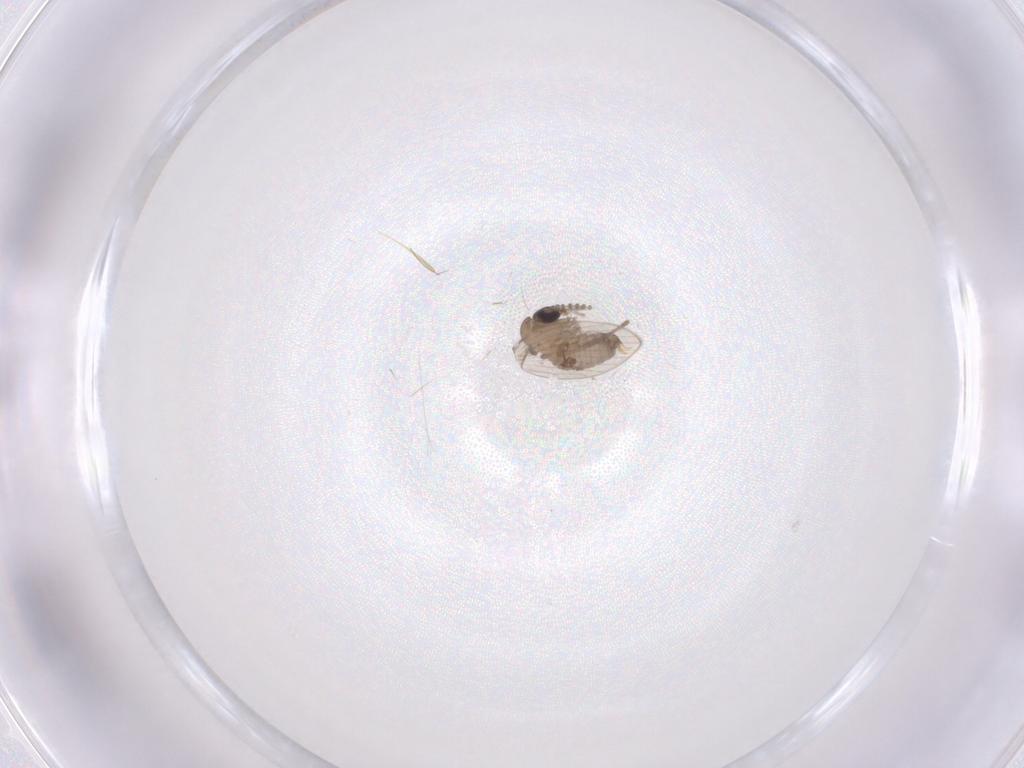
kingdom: Animalia
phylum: Arthropoda
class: Insecta
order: Diptera
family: Psychodidae
